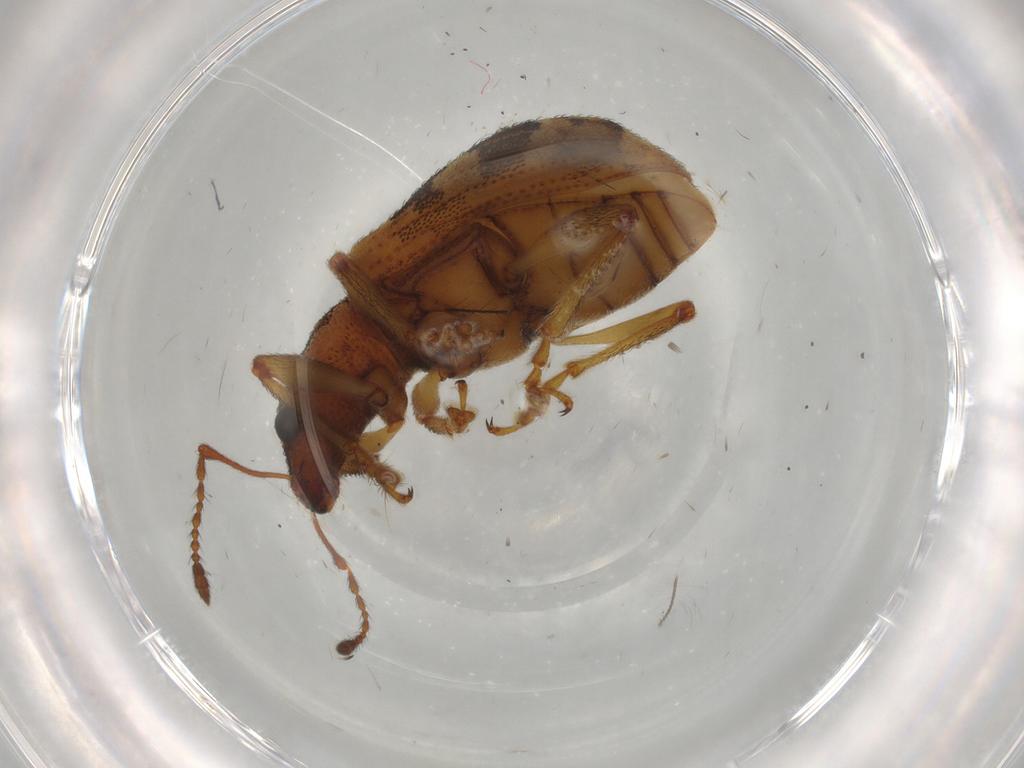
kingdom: Animalia
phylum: Arthropoda
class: Insecta
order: Coleoptera
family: Curculionidae
